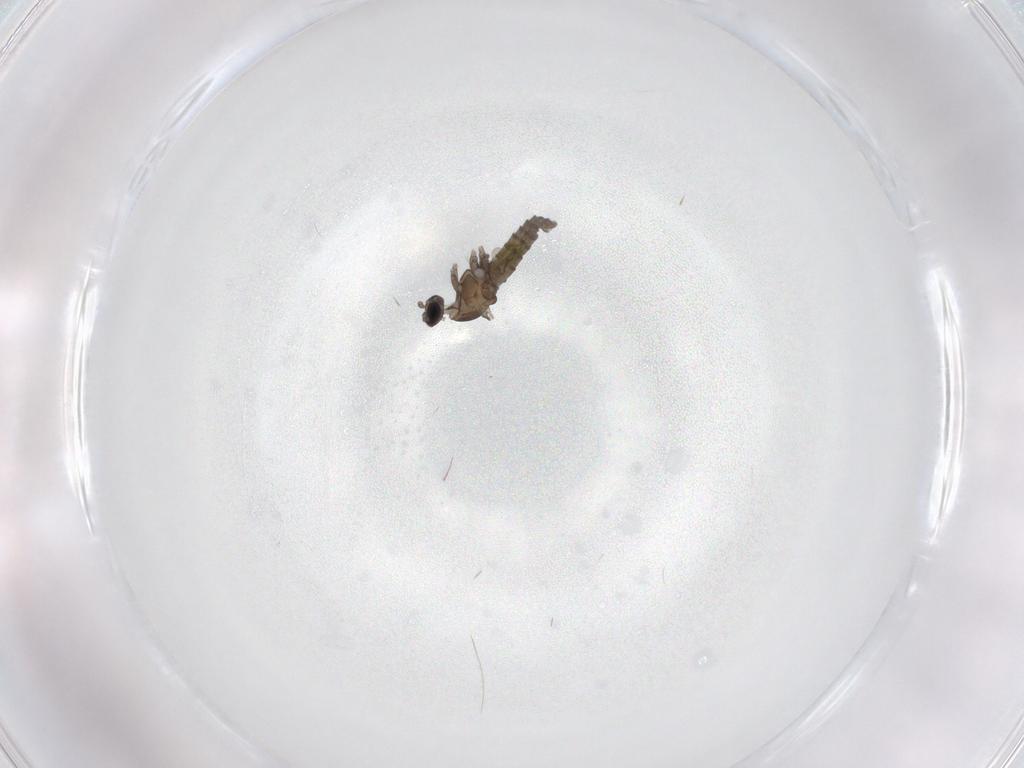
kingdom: Animalia
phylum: Arthropoda
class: Insecta
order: Diptera
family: Cecidomyiidae
